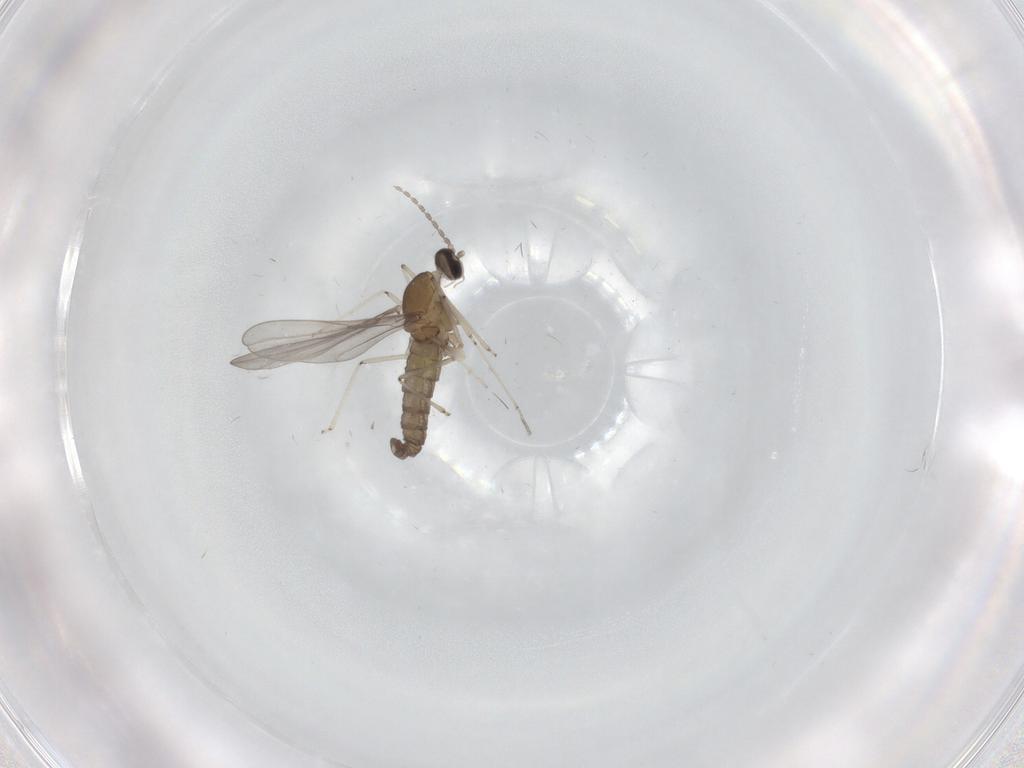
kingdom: Animalia
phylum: Arthropoda
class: Insecta
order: Diptera
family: Cecidomyiidae
